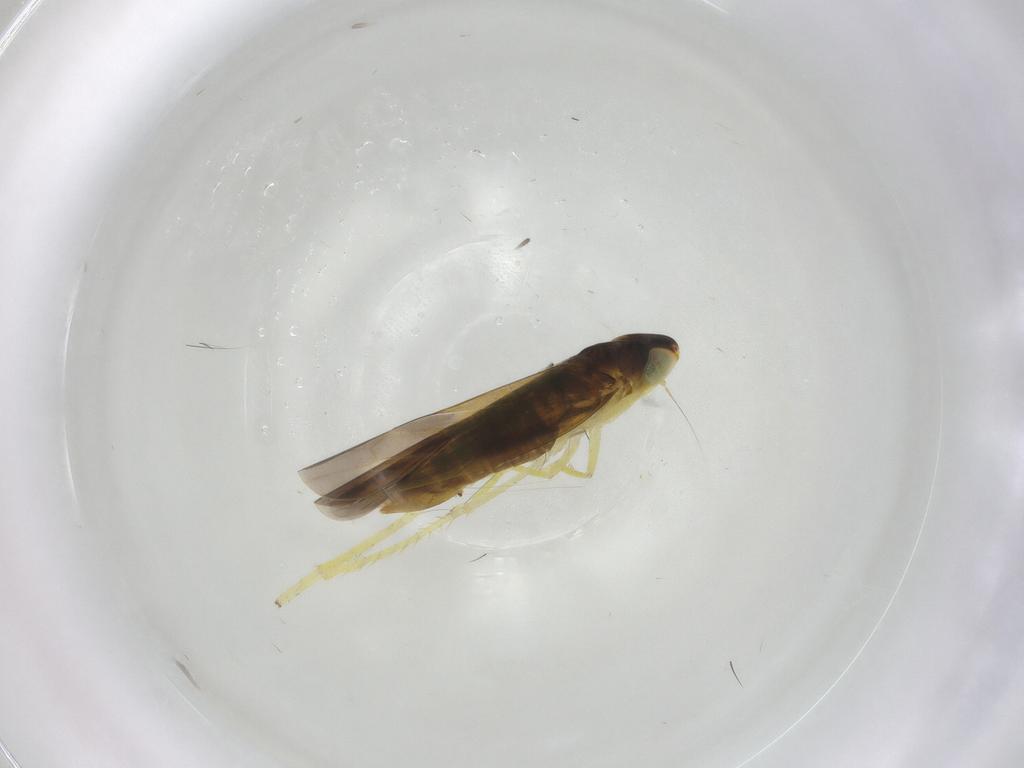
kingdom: Animalia
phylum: Arthropoda
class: Insecta
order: Hemiptera
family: Cicadellidae
